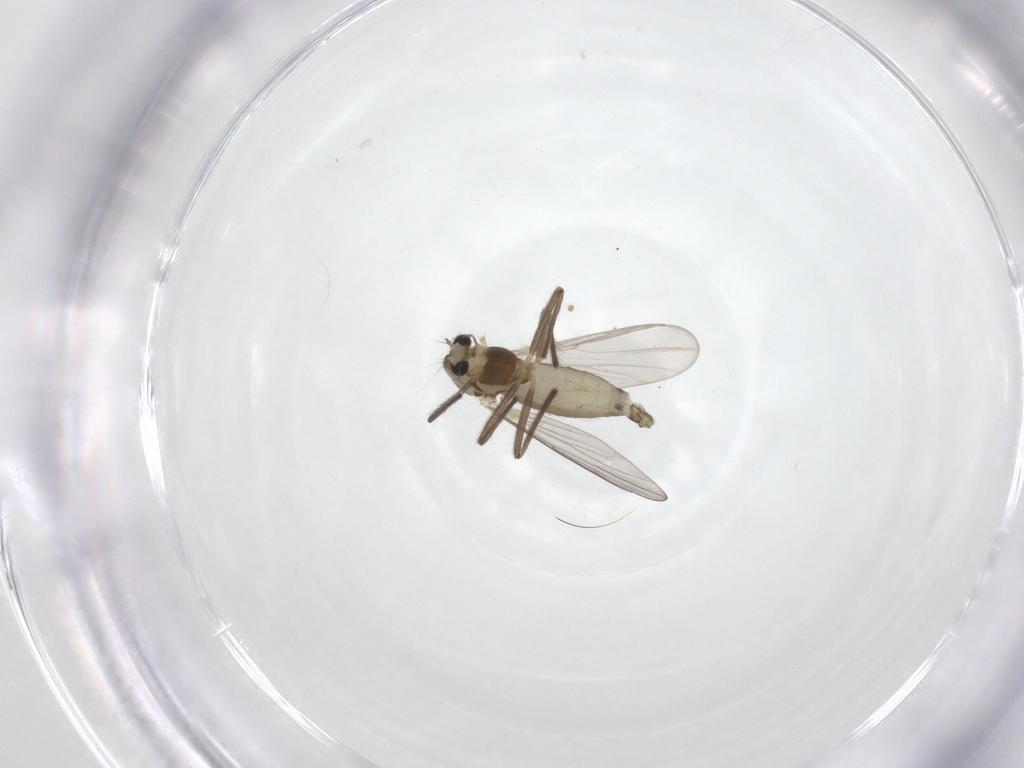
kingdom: Animalia
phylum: Arthropoda
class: Insecta
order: Diptera
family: Chironomidae
